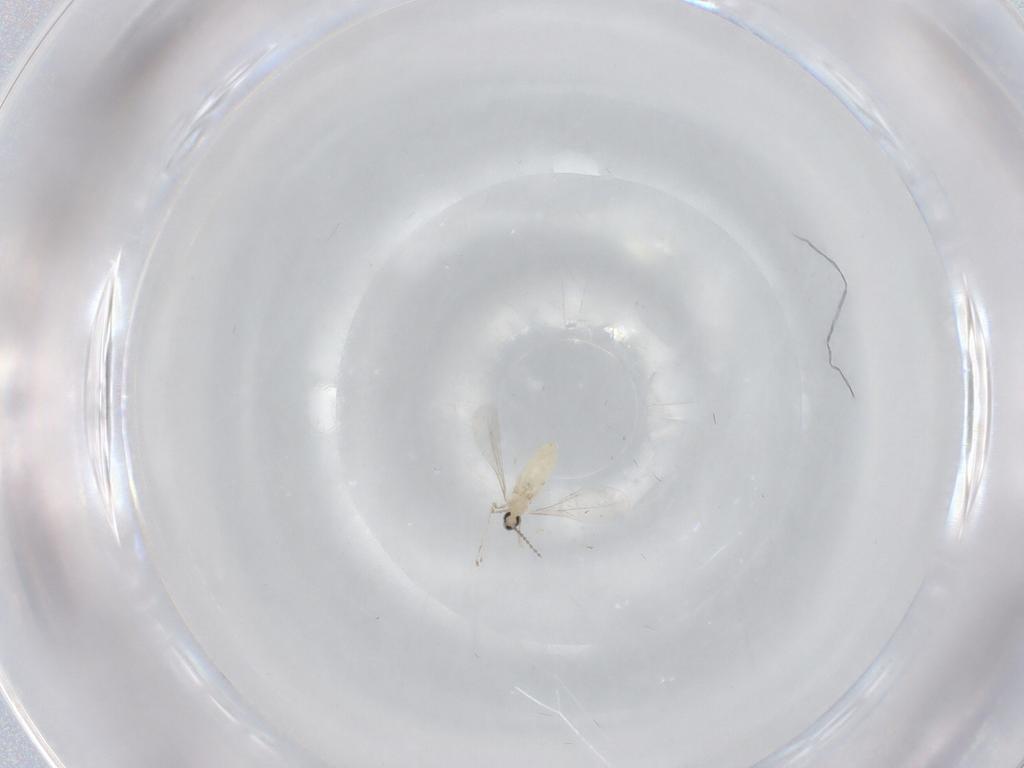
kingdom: Animalia
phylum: Arthropoda
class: Insecta
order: Diptera
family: Chironomidae
